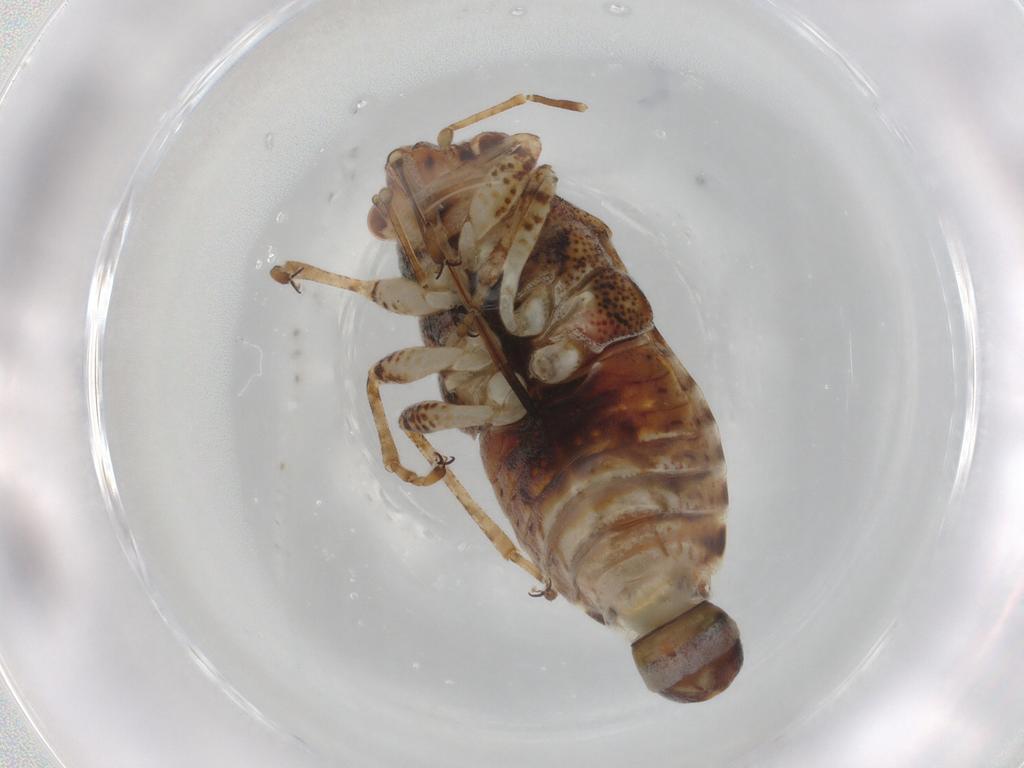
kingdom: Animalia
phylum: Arthropoda
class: Insecta
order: Hemiptera
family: Lygaeidae
